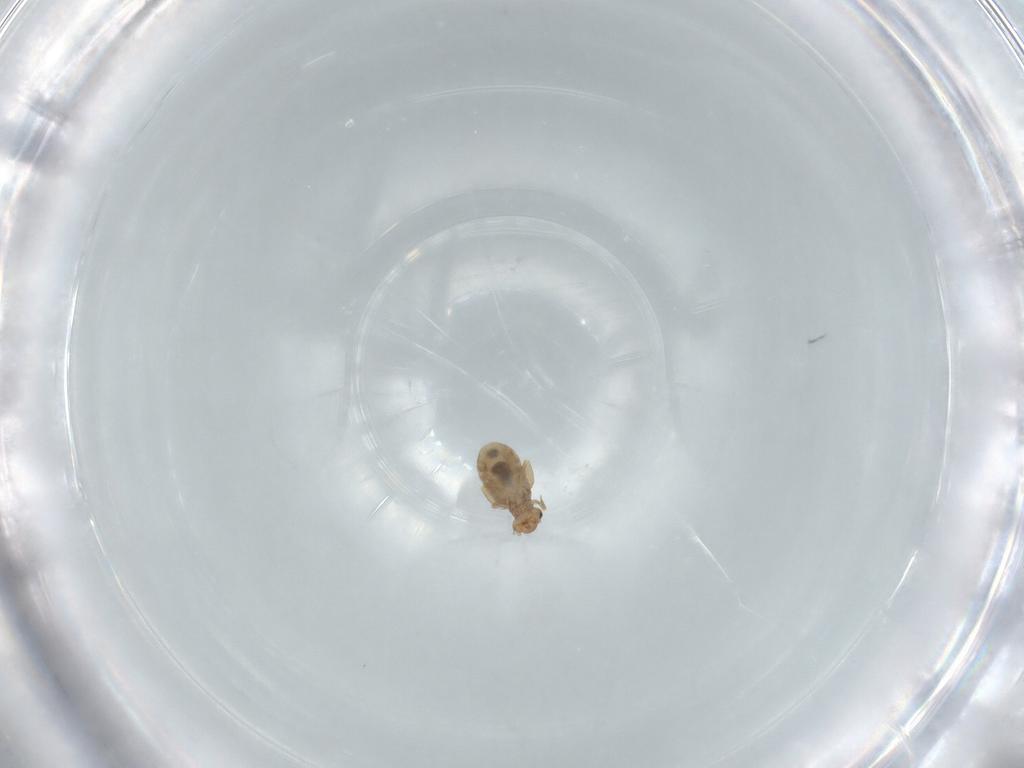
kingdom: Animalia
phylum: Arthropoda
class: Insecta
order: Psocodea
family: Liposcelididae
